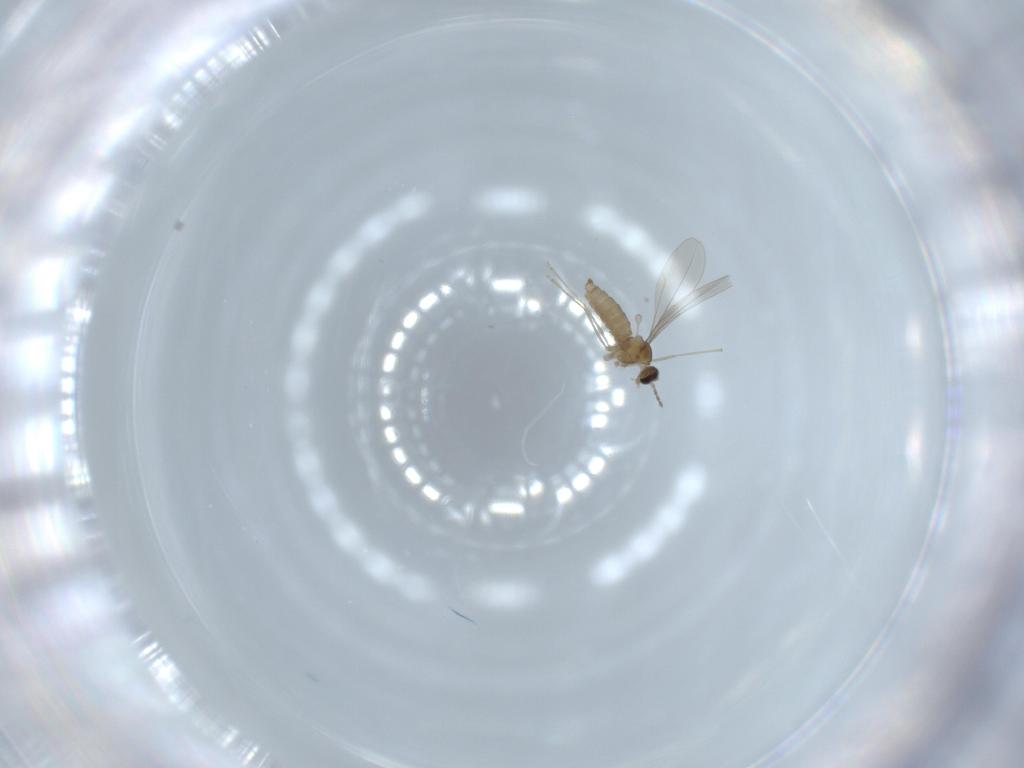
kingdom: Animalia
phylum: Arthropoda
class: Insecta
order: Diptera
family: Cecidomyiidae
